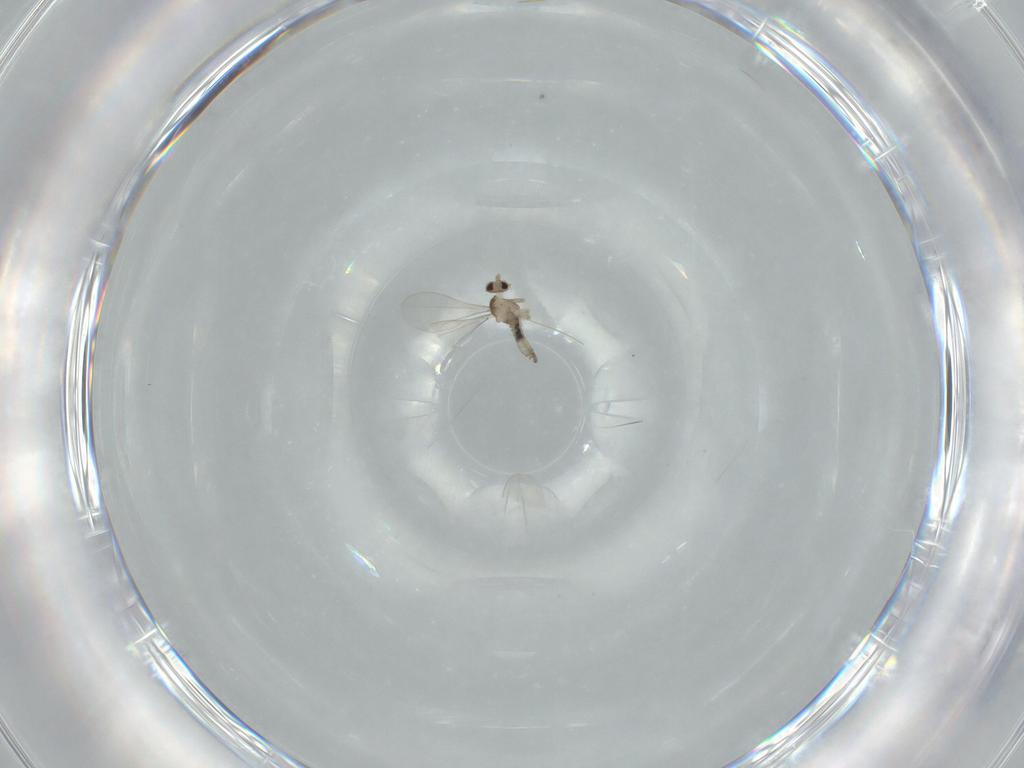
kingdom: Animalia
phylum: Arthropoda
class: Insecta
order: Diptera
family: Cecidomyiidae
